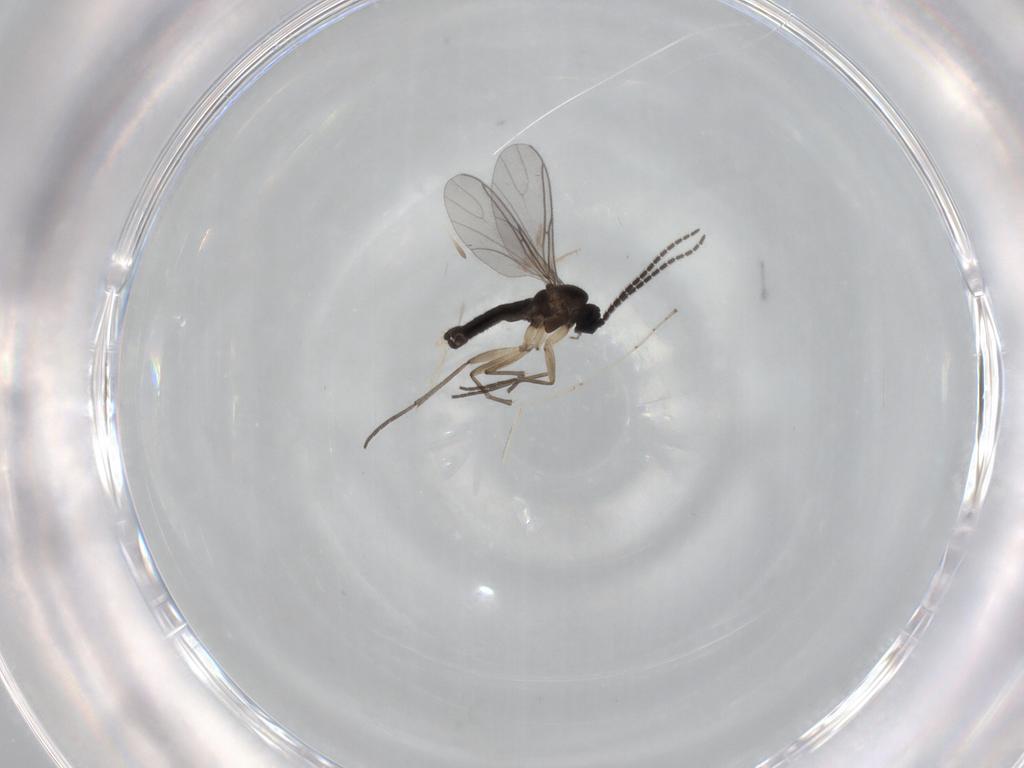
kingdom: Animalia
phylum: Arthropoda
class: Insecta
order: Diptera
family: Sciaridae
